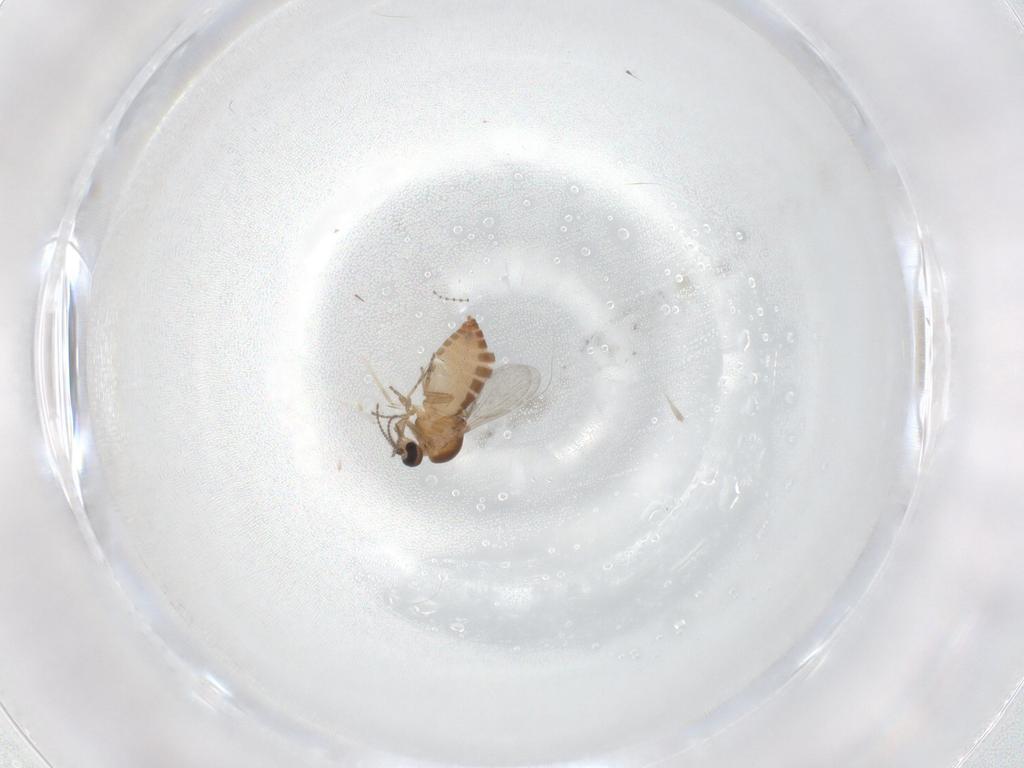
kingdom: Animalia
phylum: Arthropoda
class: Insecta
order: Diptera
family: Ceratopogonidae
